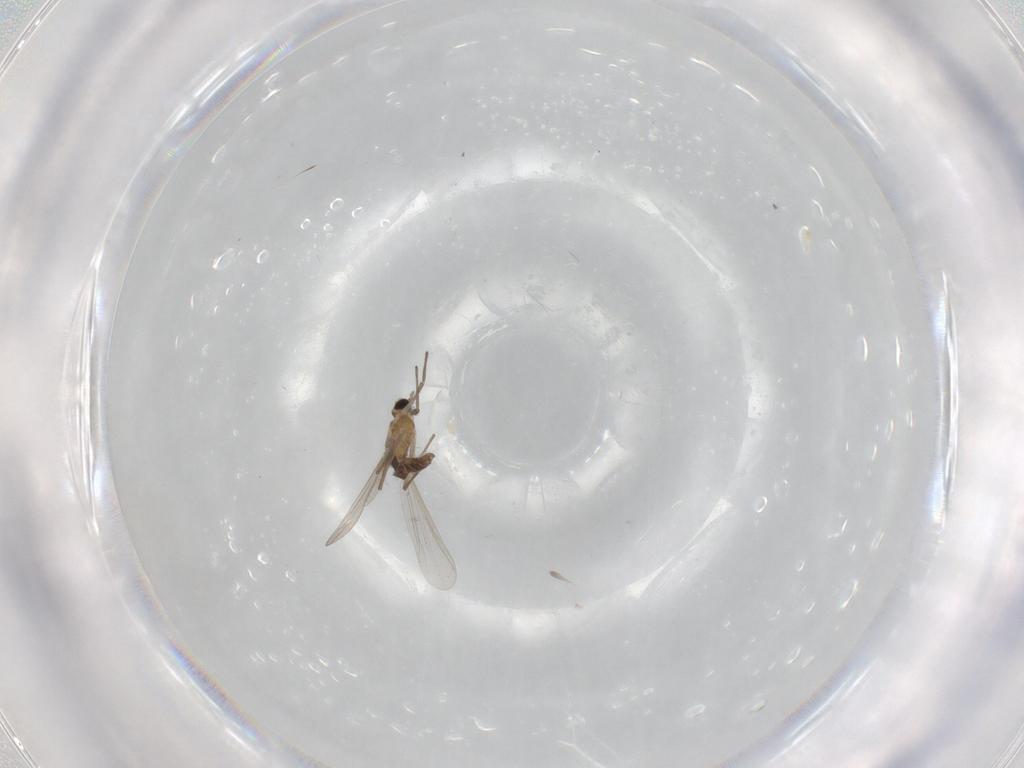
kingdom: Animalia
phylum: Arthropoda
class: Insecta
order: Diptera
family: Chironomidae
